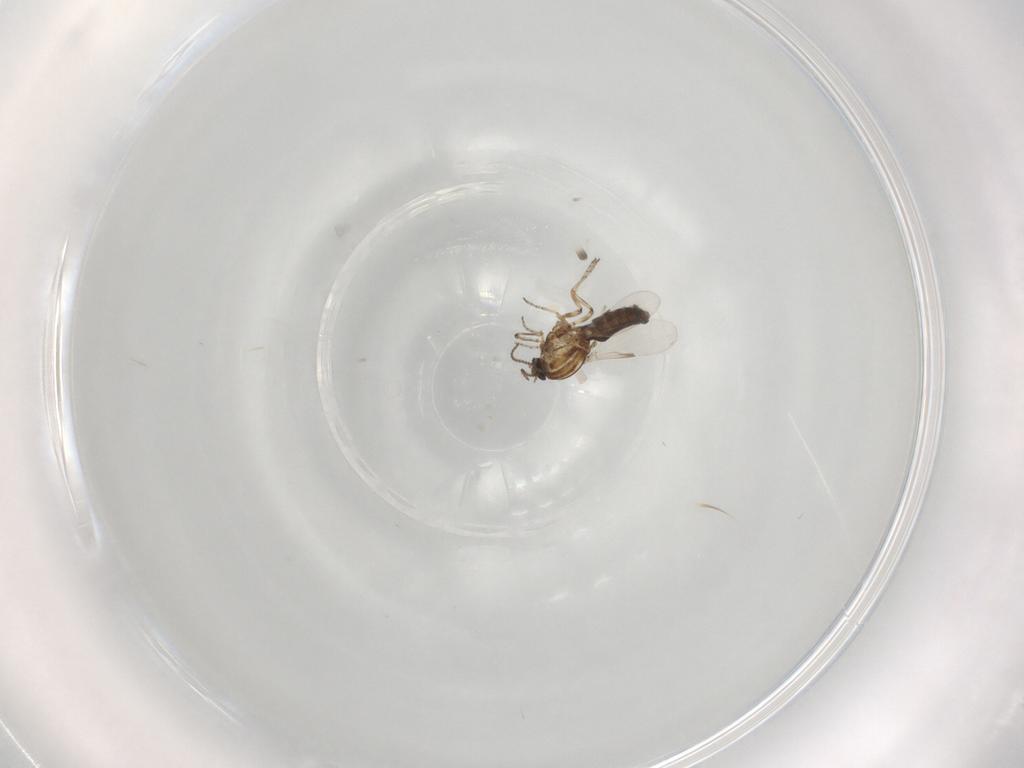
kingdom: Animalia
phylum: Arthropoda
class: Insecta
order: Diptera
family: Ceratopogonidae
